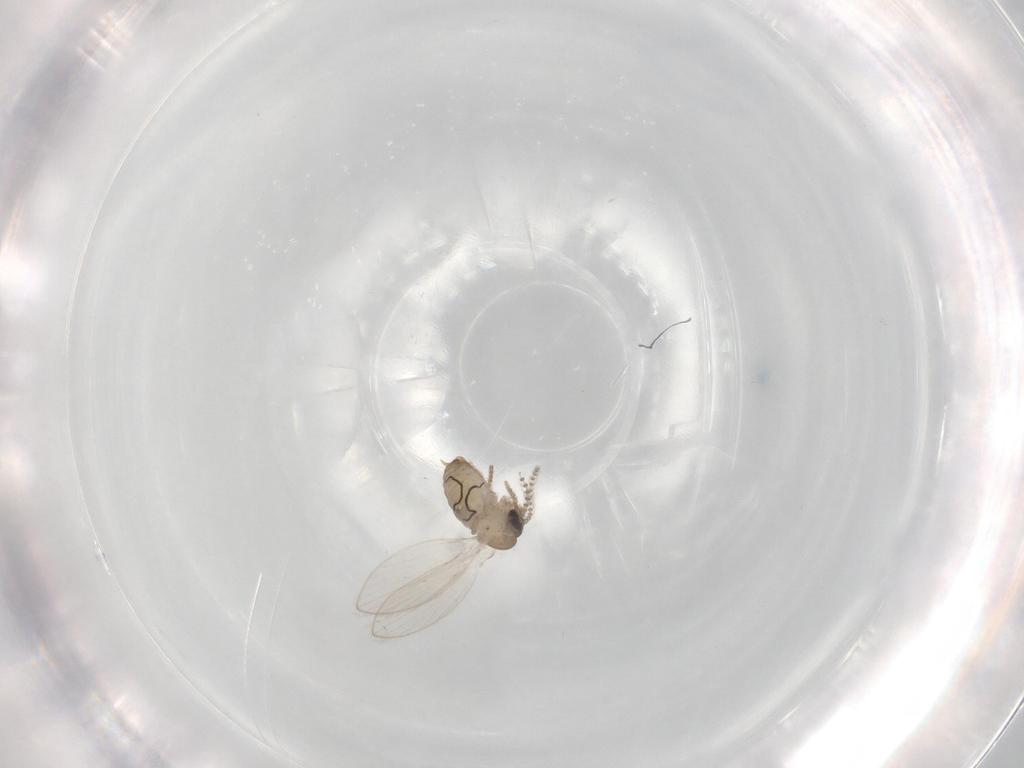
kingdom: Animalia
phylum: Arthropoda
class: Insecta
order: Diptera
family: Psychodidae
